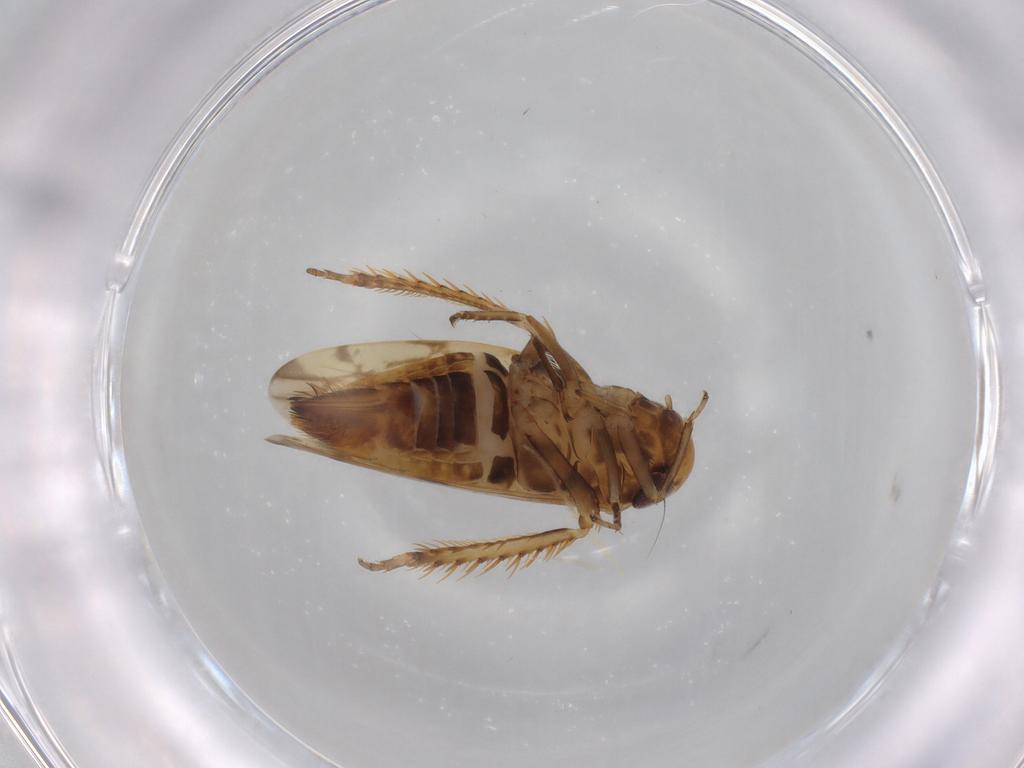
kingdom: Animalia
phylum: Arthropoda
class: Insecta
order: Hemiptera
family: Cicadellidae
